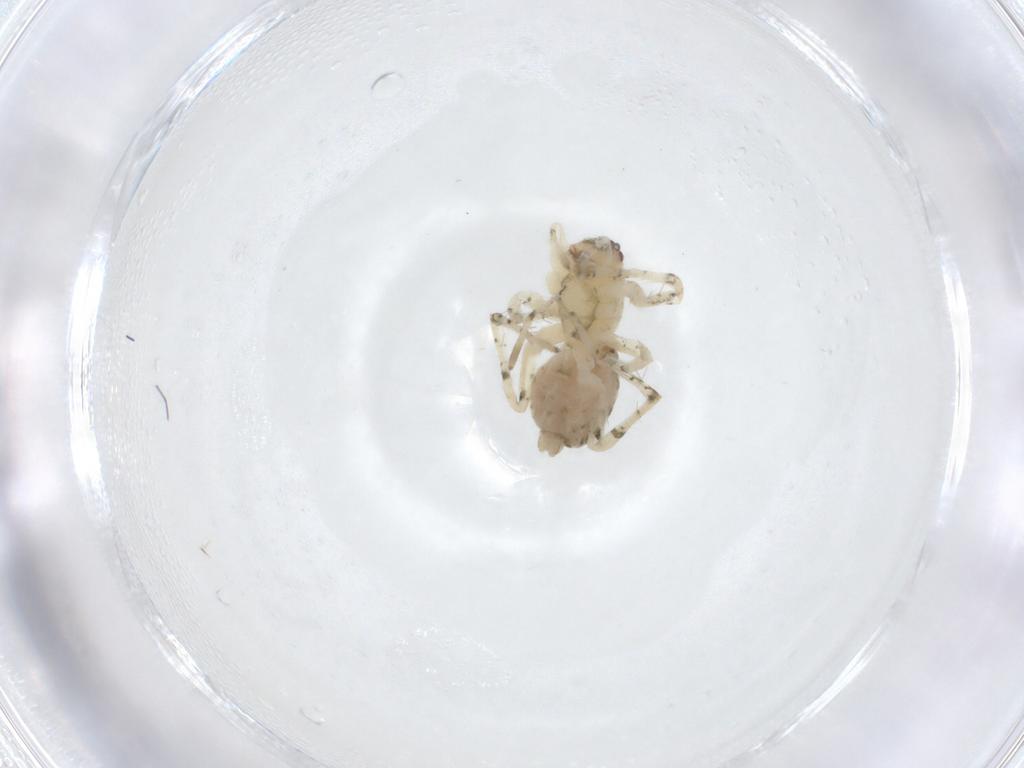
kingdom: Animalia
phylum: Arthropoda
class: Arachnida
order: Araneae
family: Anyphaenidae
